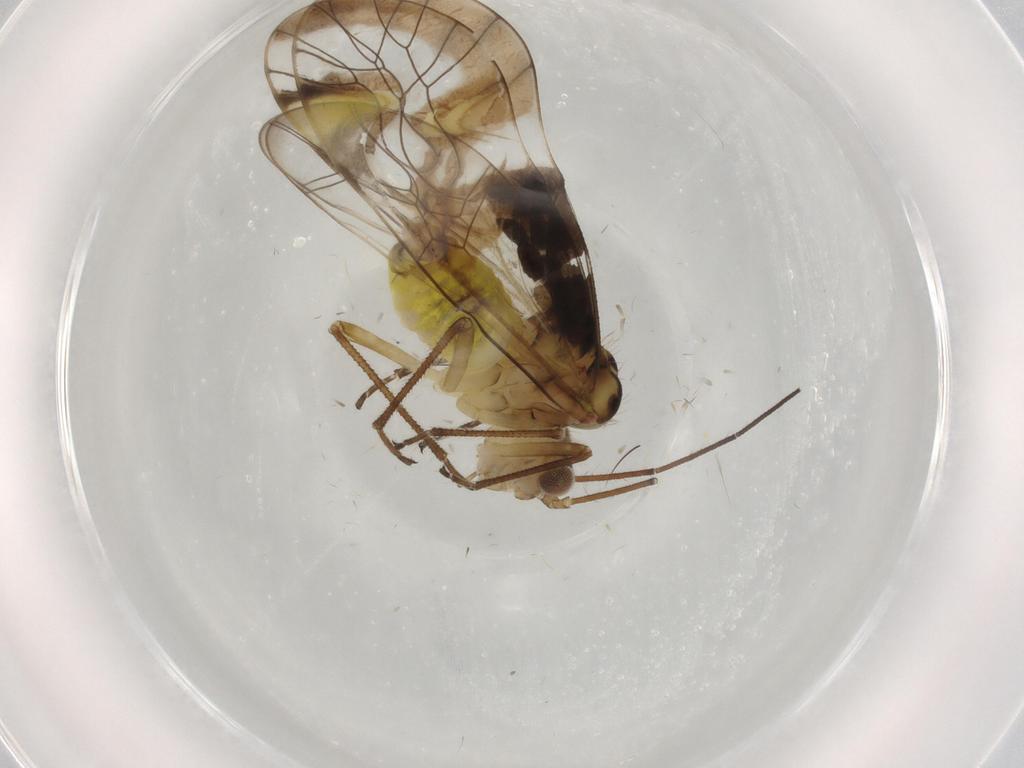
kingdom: Animalia
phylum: Arthropoda
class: Insecta
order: Psocodea
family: Amphipsocidae
